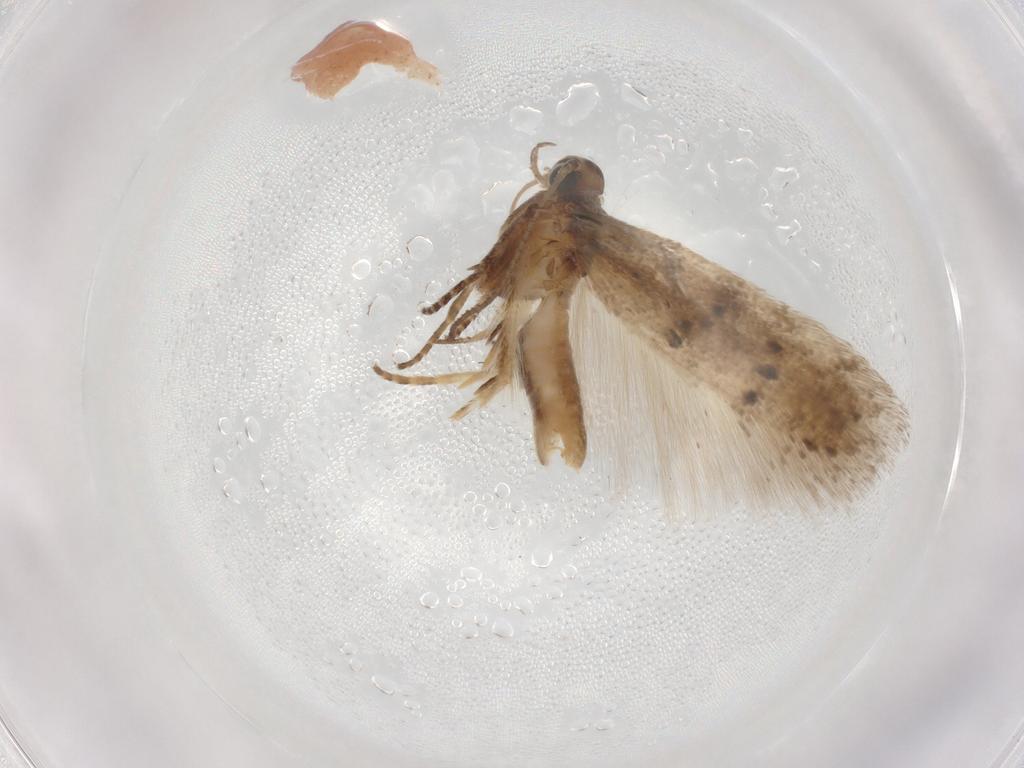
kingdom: Animalia
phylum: Arthropoda
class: Insecta
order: Lepidoptera
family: Gelechiidae
